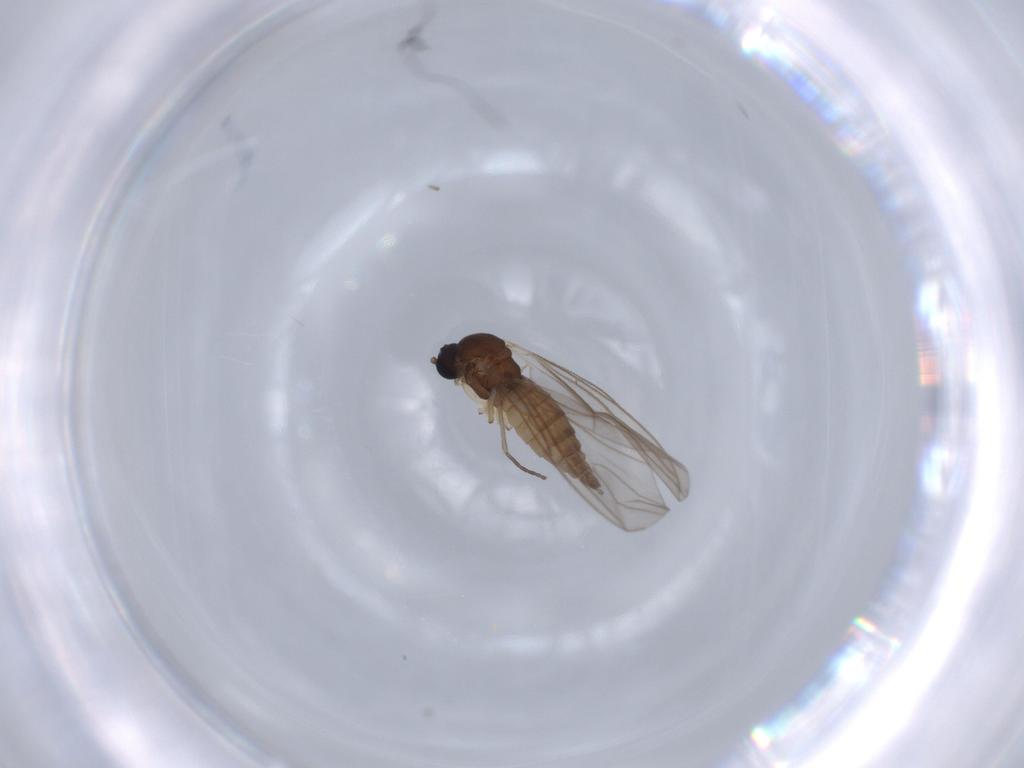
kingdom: Animalia
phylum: Arthropoda
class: Insecta
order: Diptera
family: Sciaridae
